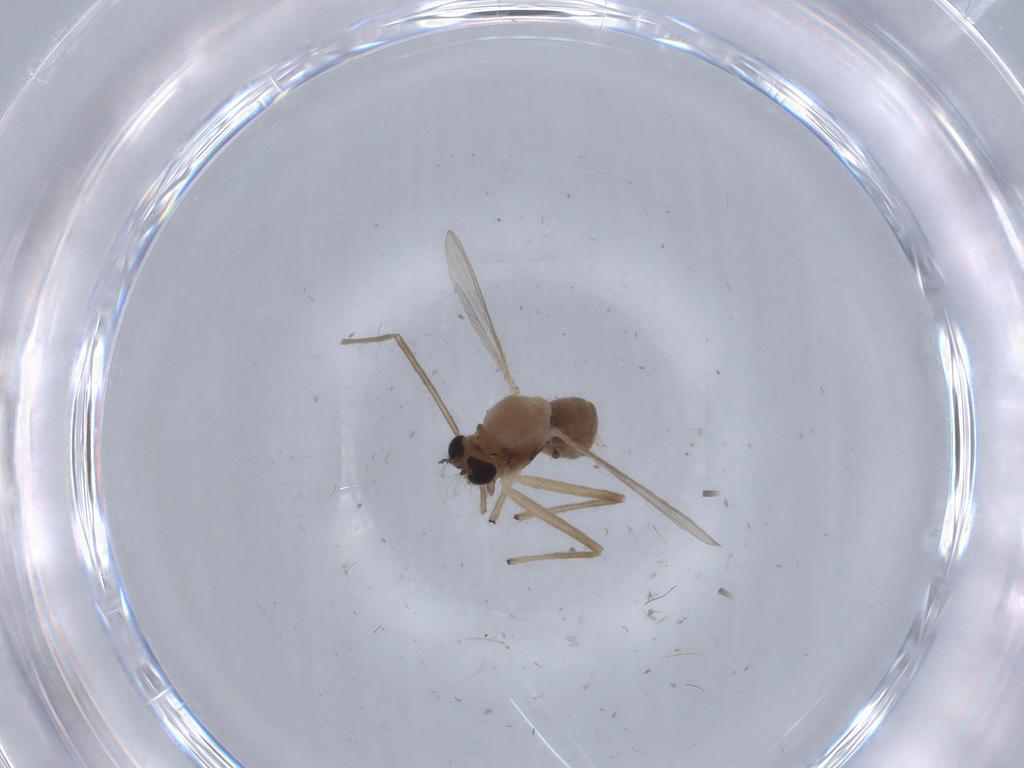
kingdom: Animalia
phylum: Arthropoda
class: Insecta
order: Diptera
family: Chironomidae
